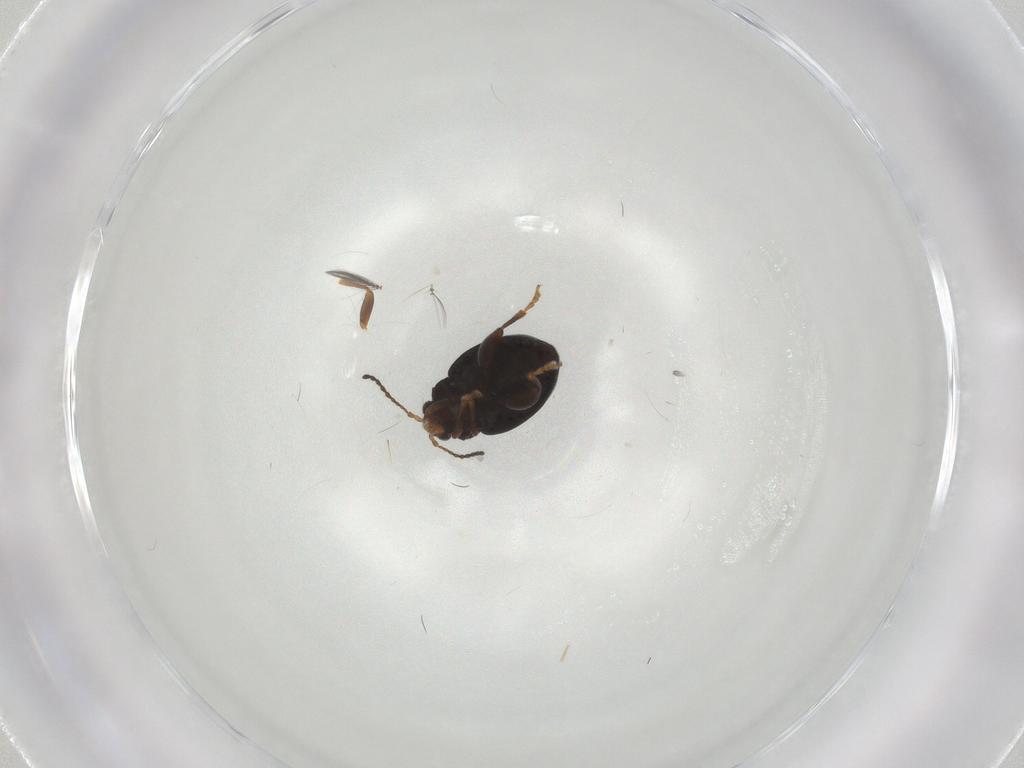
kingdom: Animalia
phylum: Arthropoda
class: Insecta
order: Coleoptera
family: Chrysomelidae
